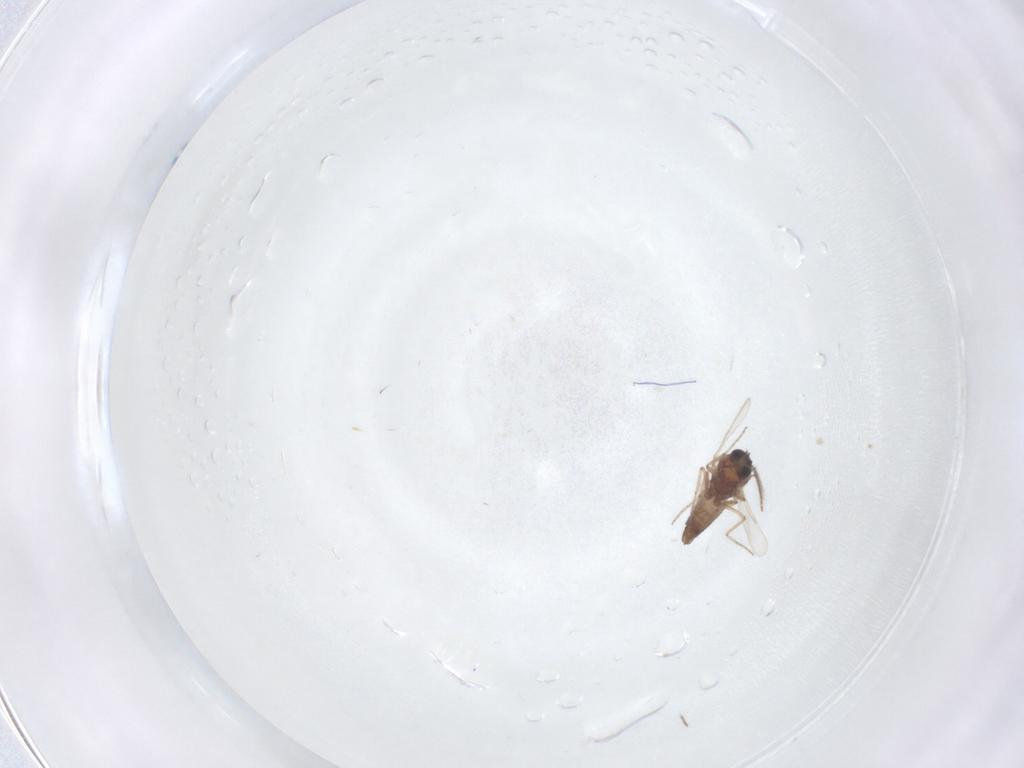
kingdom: Animalia
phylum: Arthropoda
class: Insecta
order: Diptera
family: Ceratopogonidae
